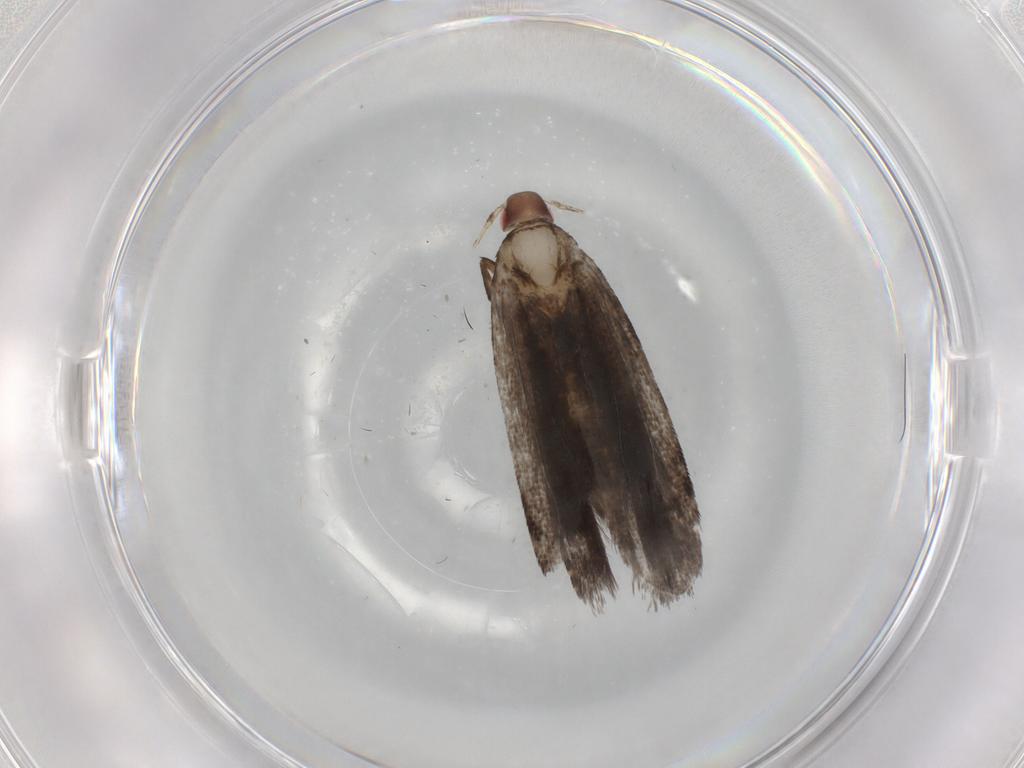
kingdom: Animalia
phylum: Arthropoda
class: Insecta
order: Lepidoptera
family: Gelechiidae
